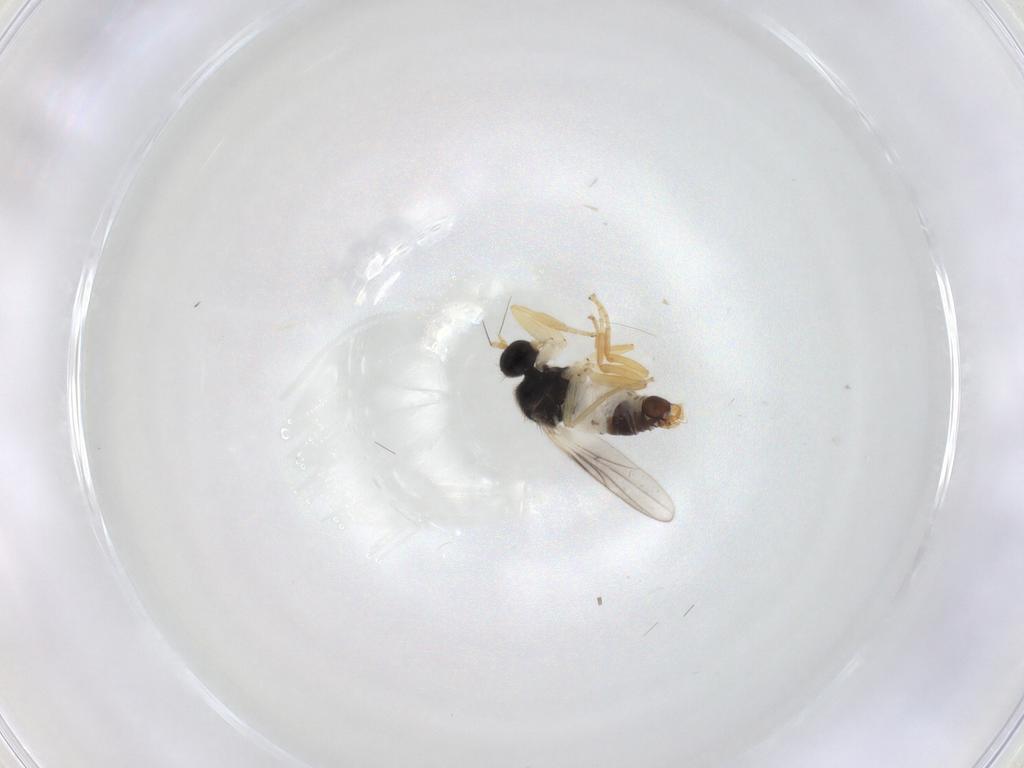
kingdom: Animalia
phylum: Arthropoda
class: Insecta
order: Diptera
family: Hybotidae
